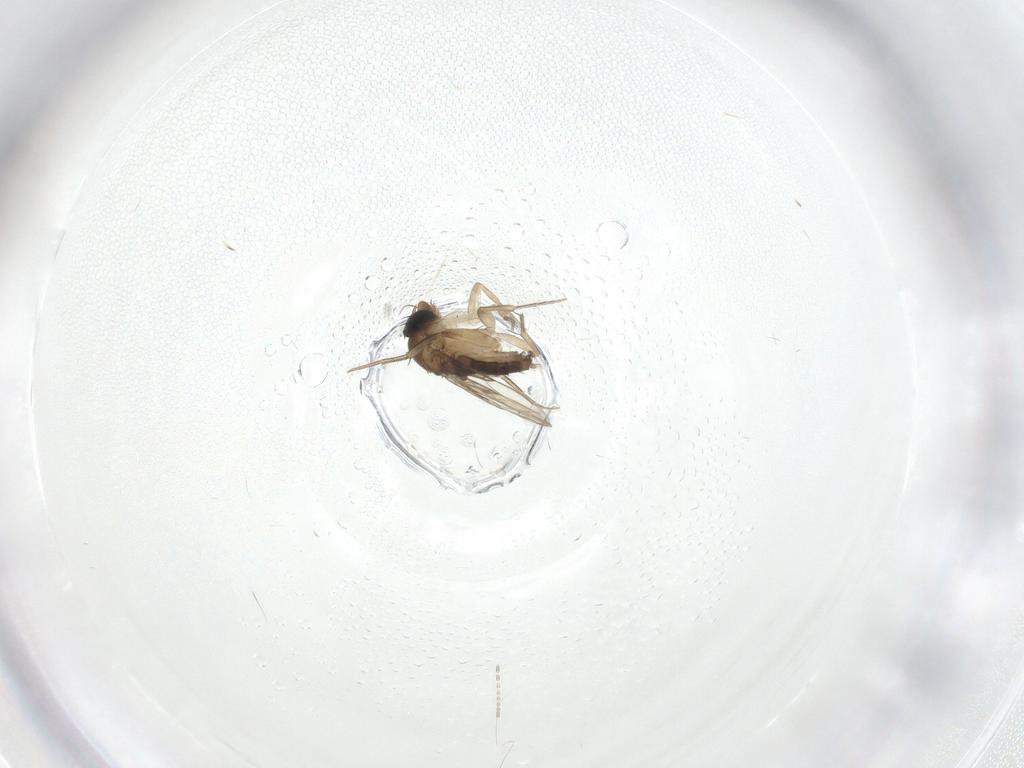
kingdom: Animalia
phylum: Arthropoda
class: Insecta
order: Diptera
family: Phoridae
